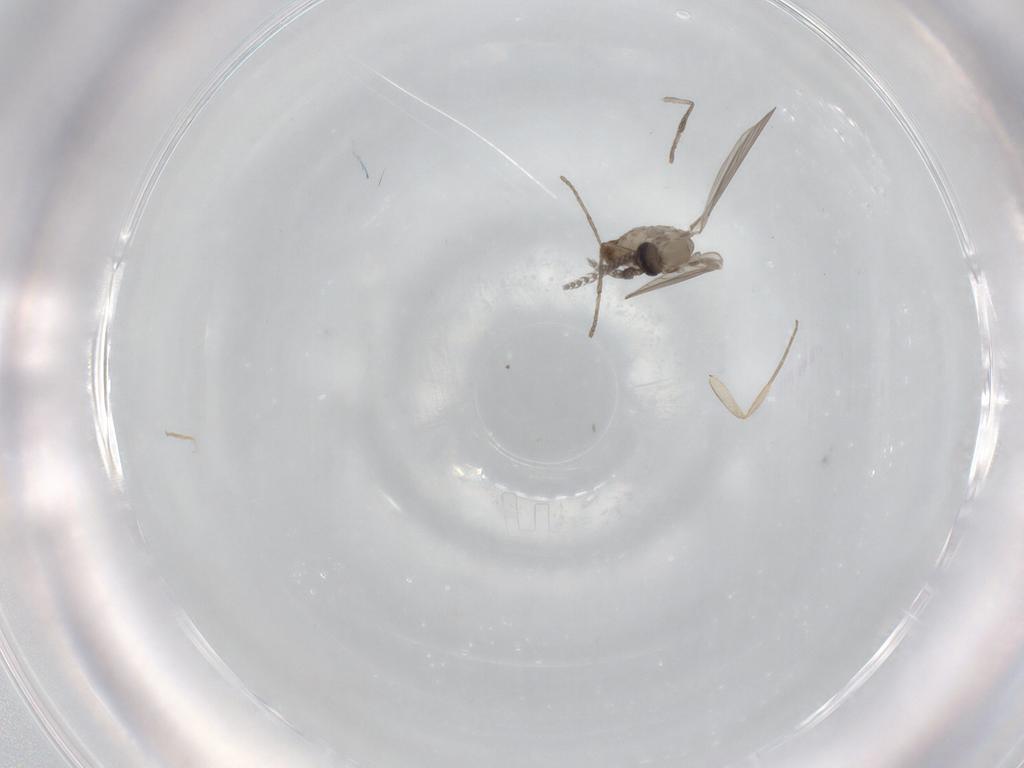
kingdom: Animalia
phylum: Arthropoda
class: Insecta
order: Diptera
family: Psychodidae
